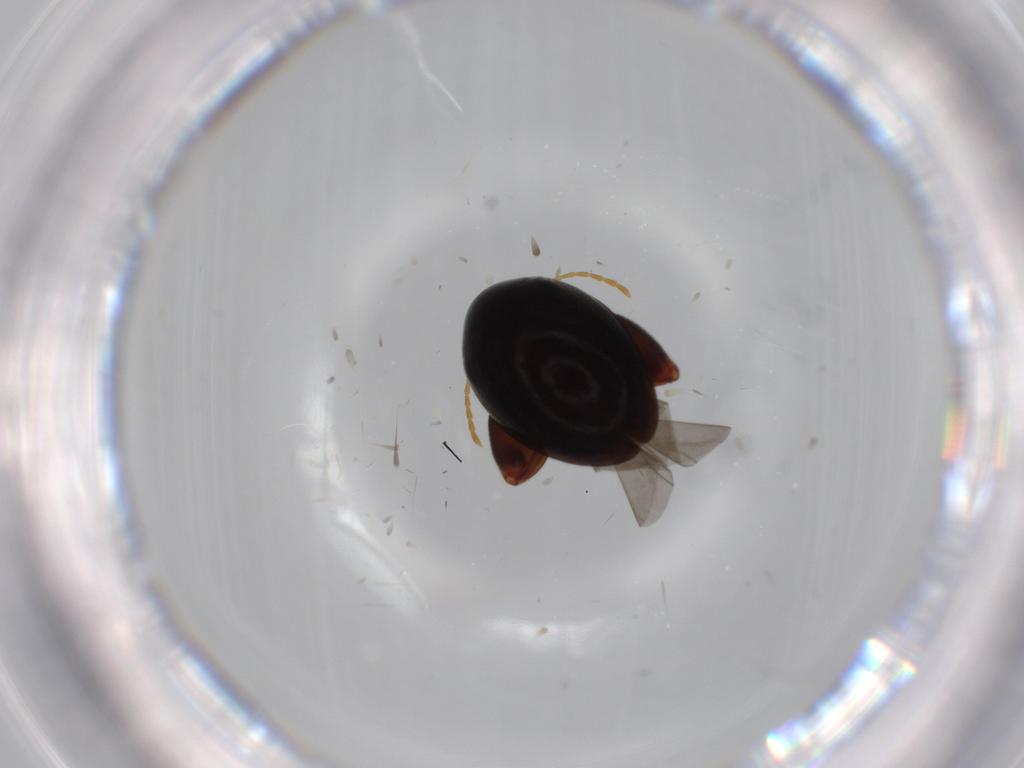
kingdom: Animalia
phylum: Arthropoda
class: Insecta
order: Coleoptera
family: Chrysomelidae
